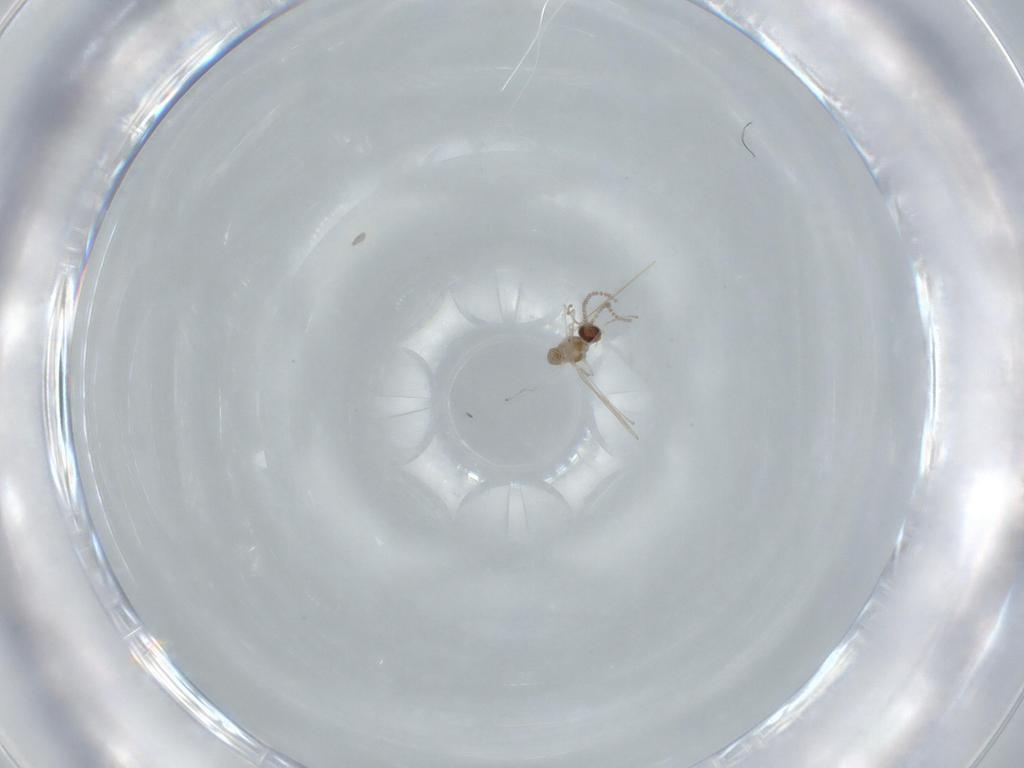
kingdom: Animalia
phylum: Arthropoda
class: Insecta
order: Diptera
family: Cecidomyiidae
